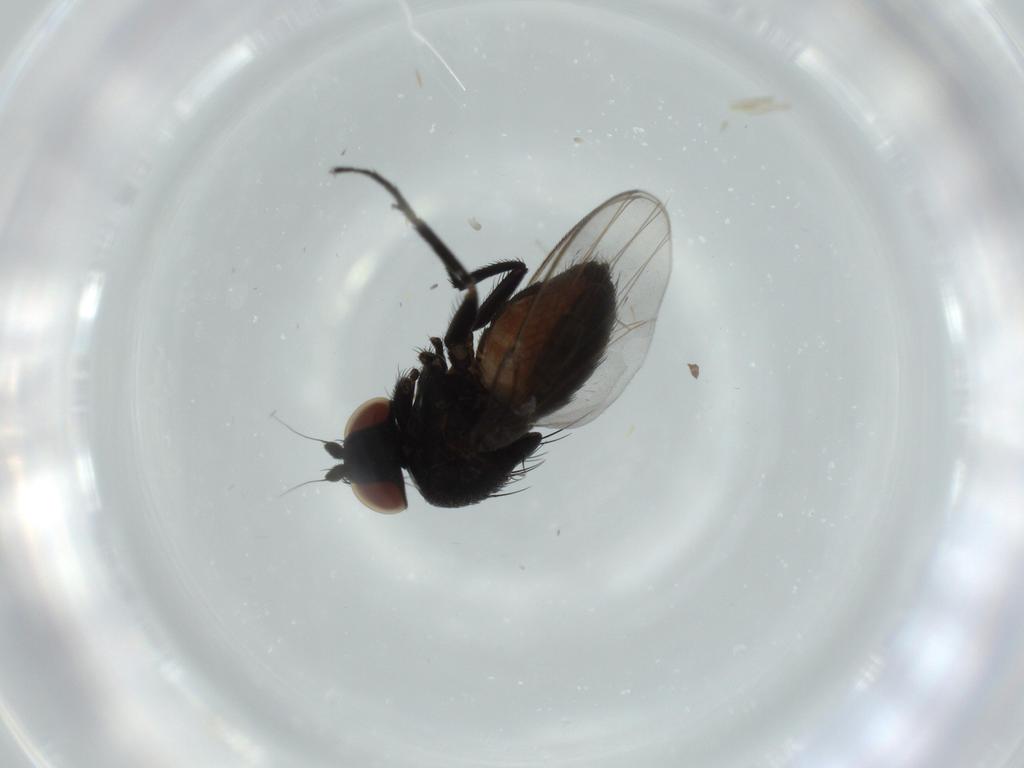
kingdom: Animalia
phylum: Arthropoda
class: Insecta
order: Diptera
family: Milichiidae
